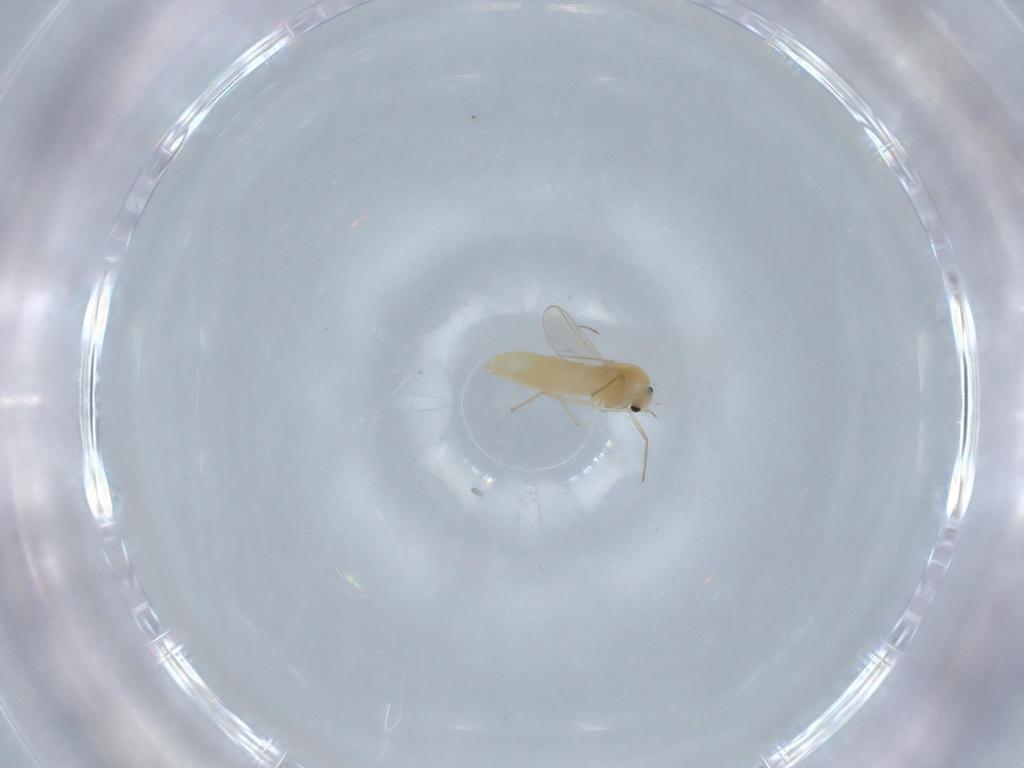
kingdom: Animalia
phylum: Arthropoda
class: Insecta
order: Diptera
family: Chironomidae
